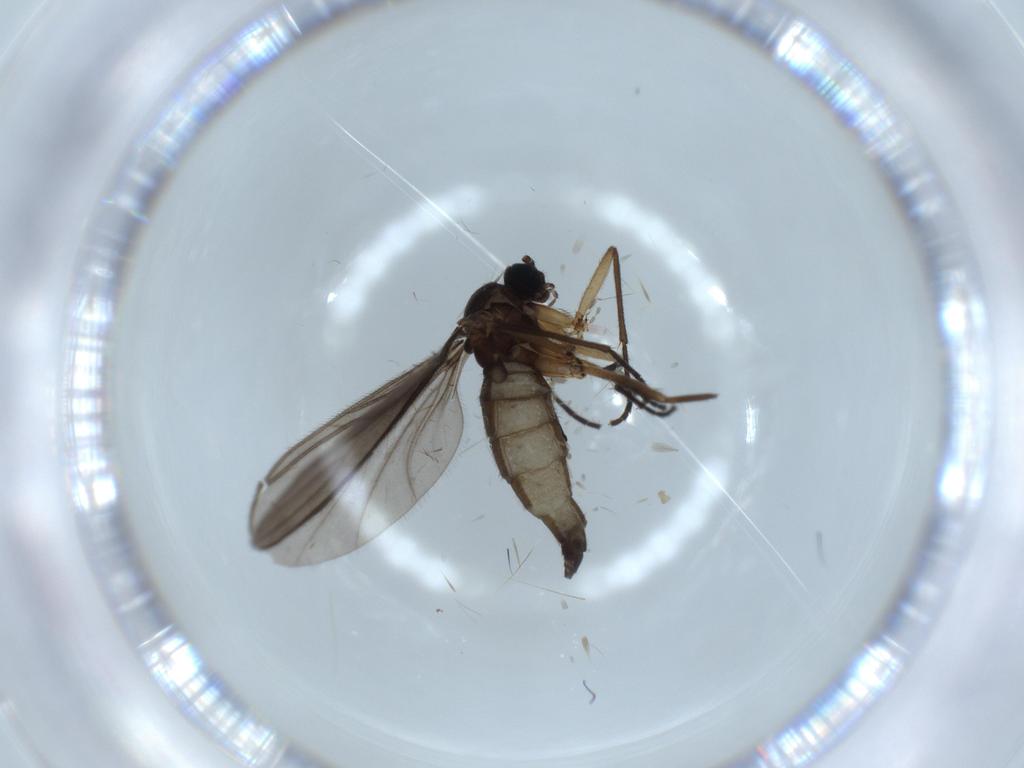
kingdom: Animalia
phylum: Arthropoda
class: Insecta
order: Diptera
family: Sciaridae
